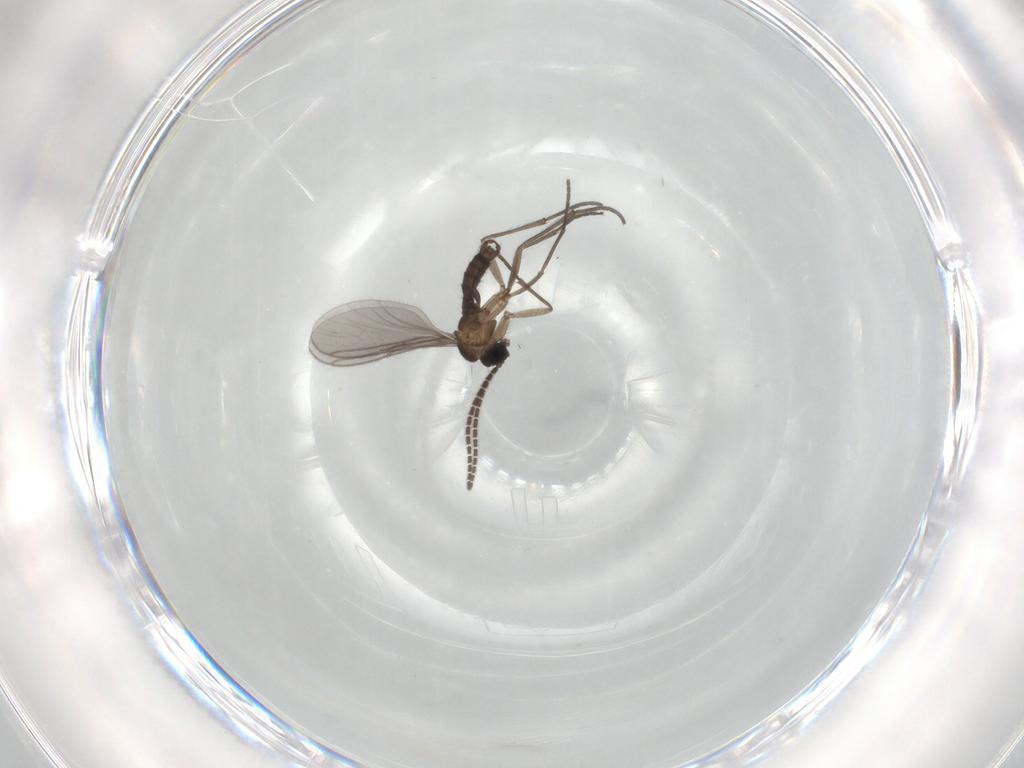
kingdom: Animalia
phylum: Arthropoda
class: Insecta
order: Diptera
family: Sciaridae
